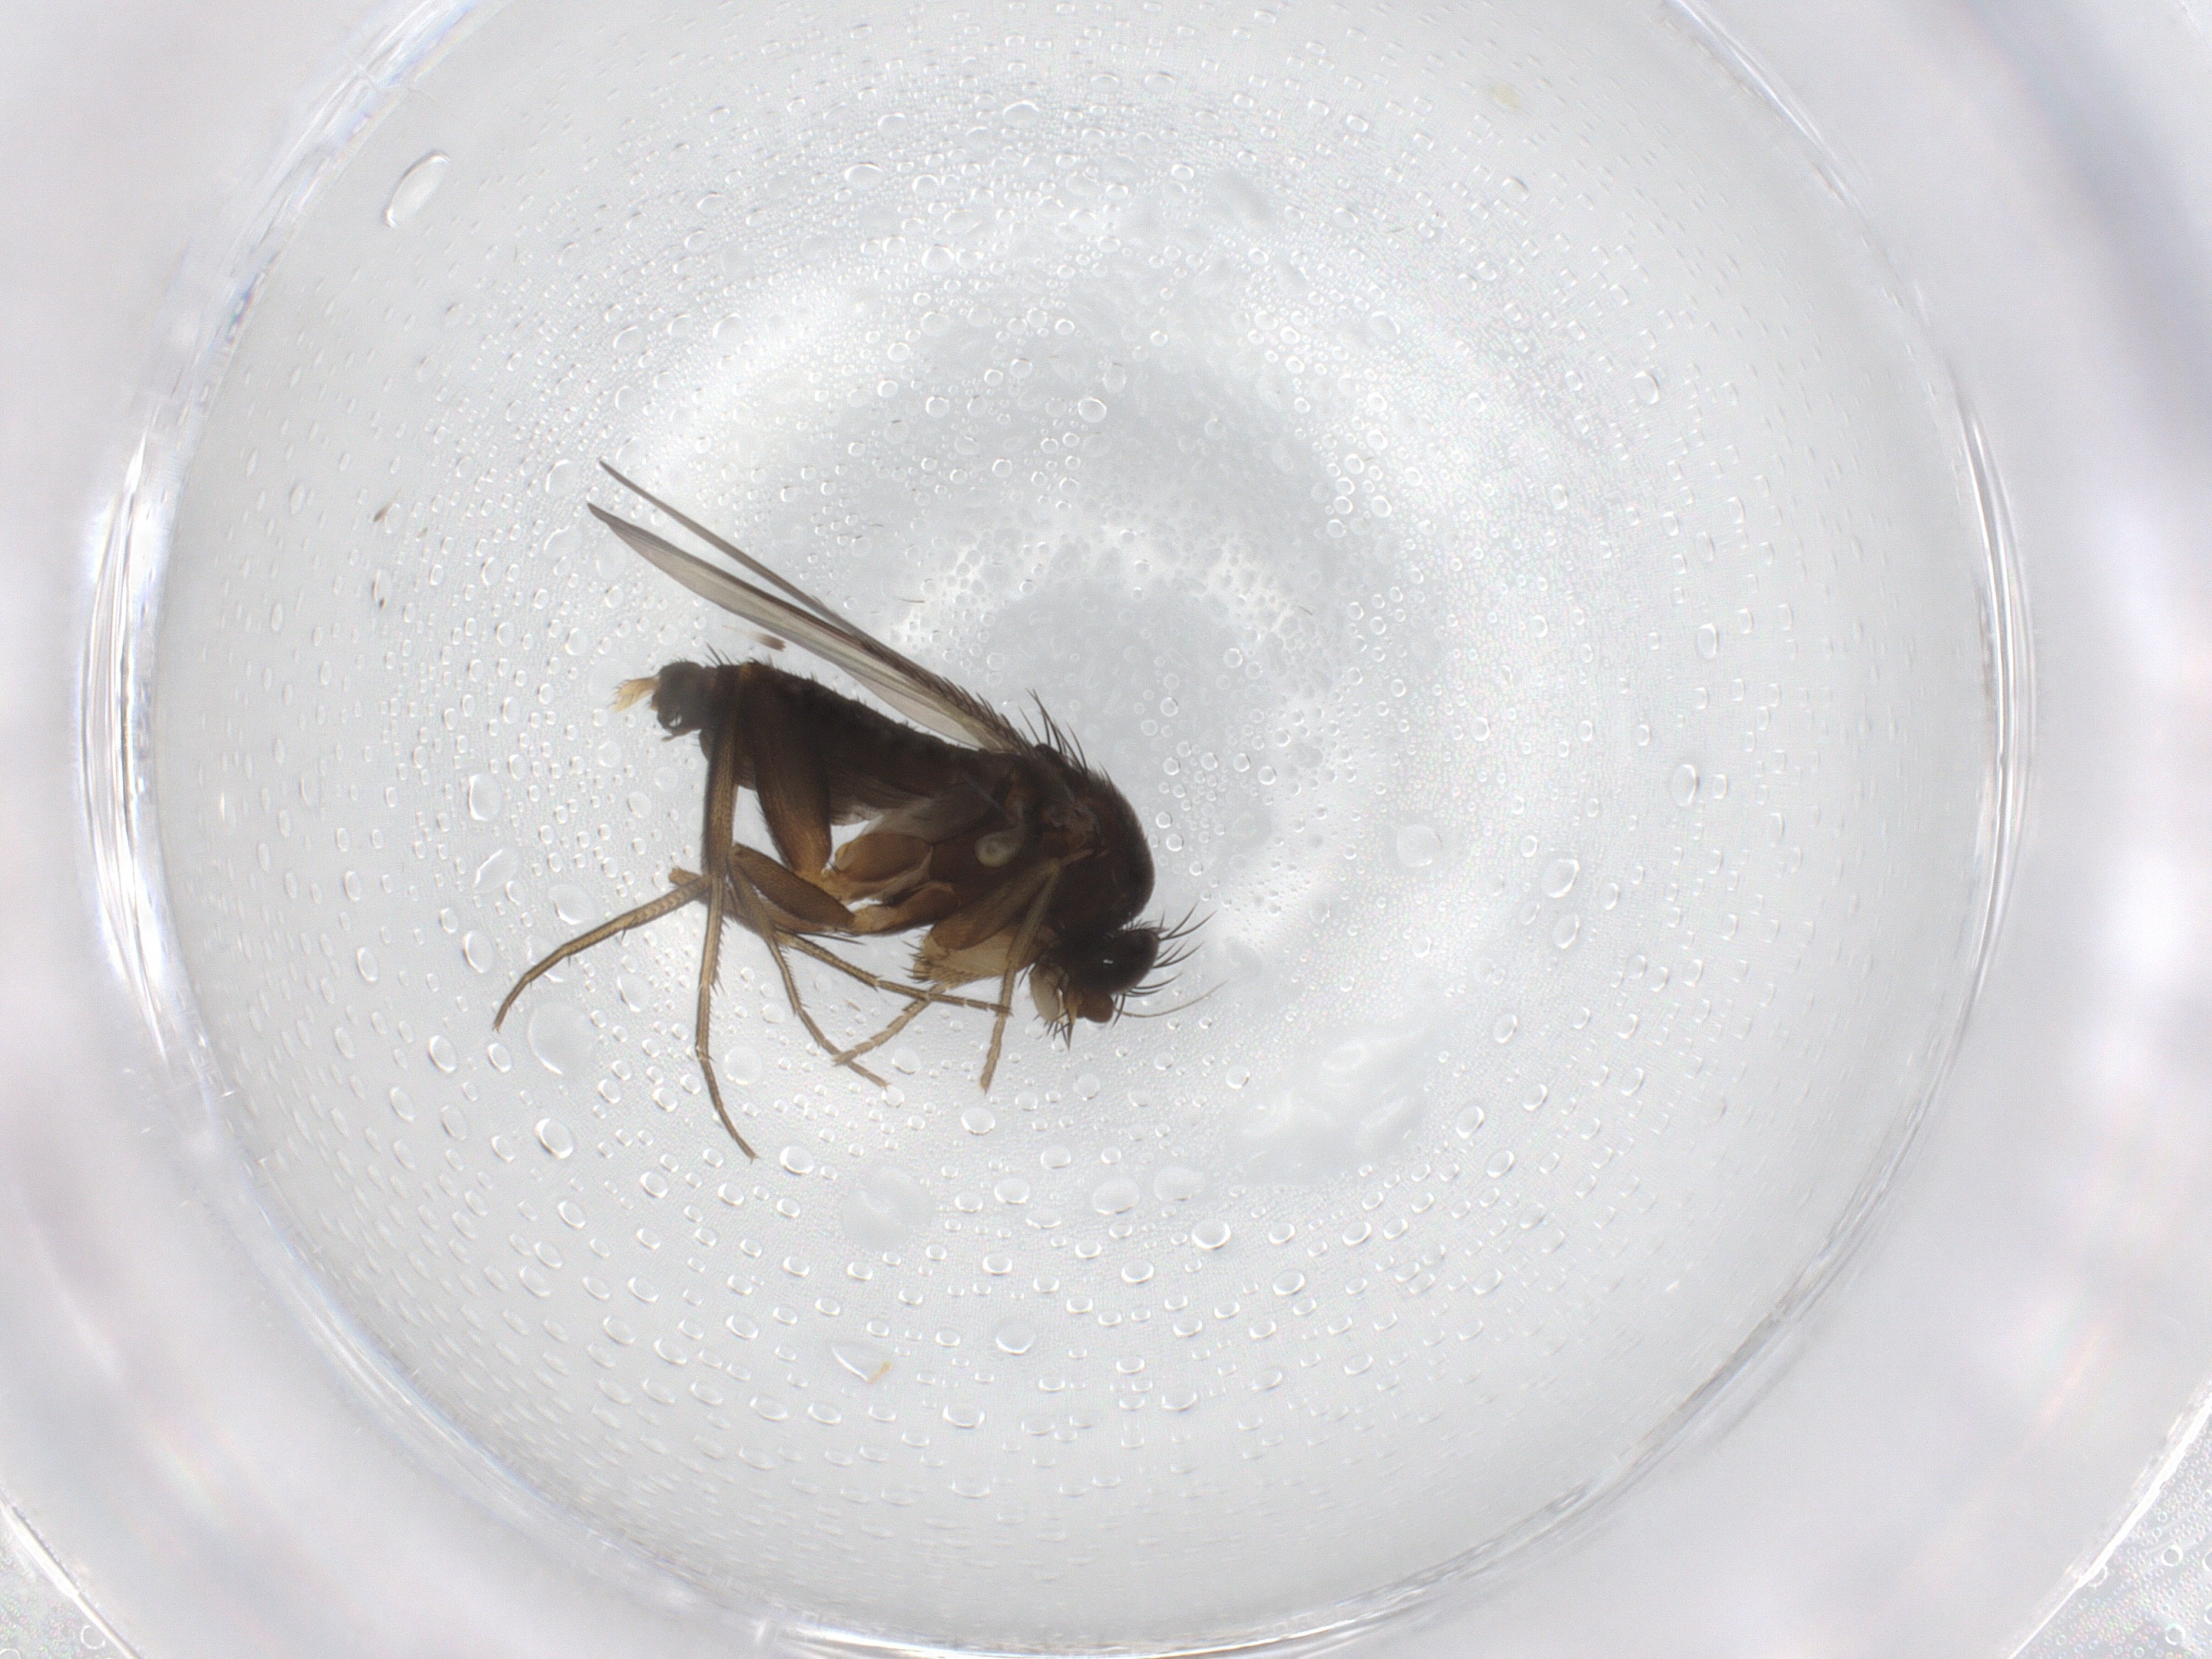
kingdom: Animalia
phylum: Arthropoda
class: Insecta
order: Diptera
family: Phoridae
